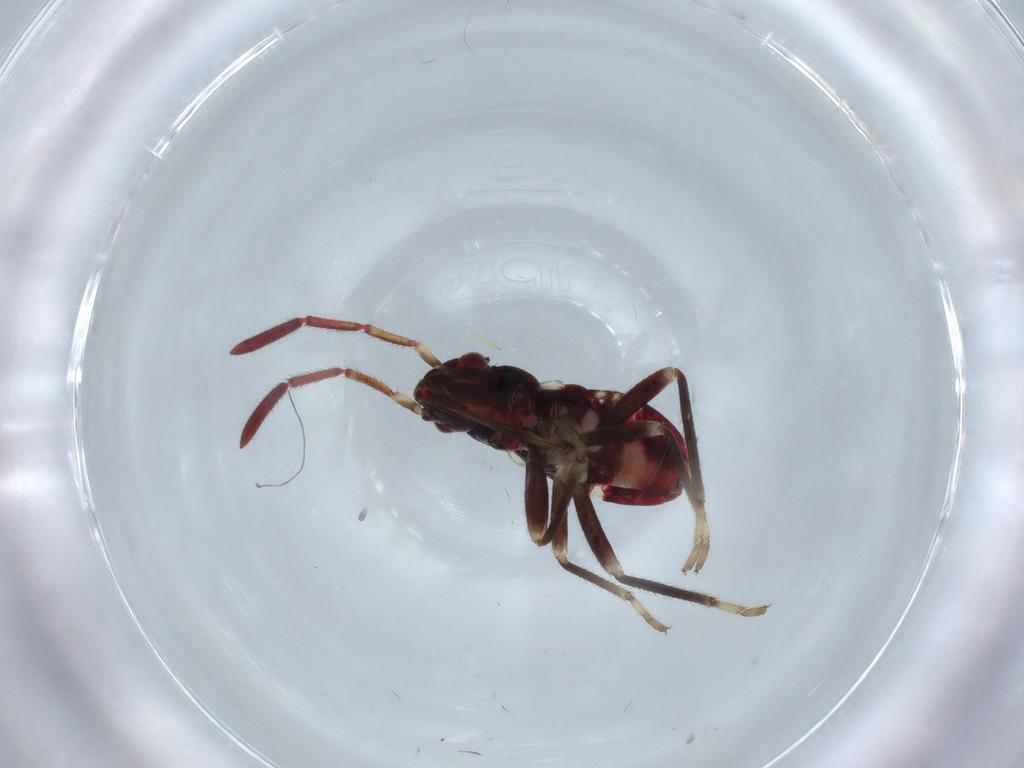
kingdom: Animalia
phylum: Arthropoda
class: Insecta
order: Hemiptera
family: Rhyparochromidae
